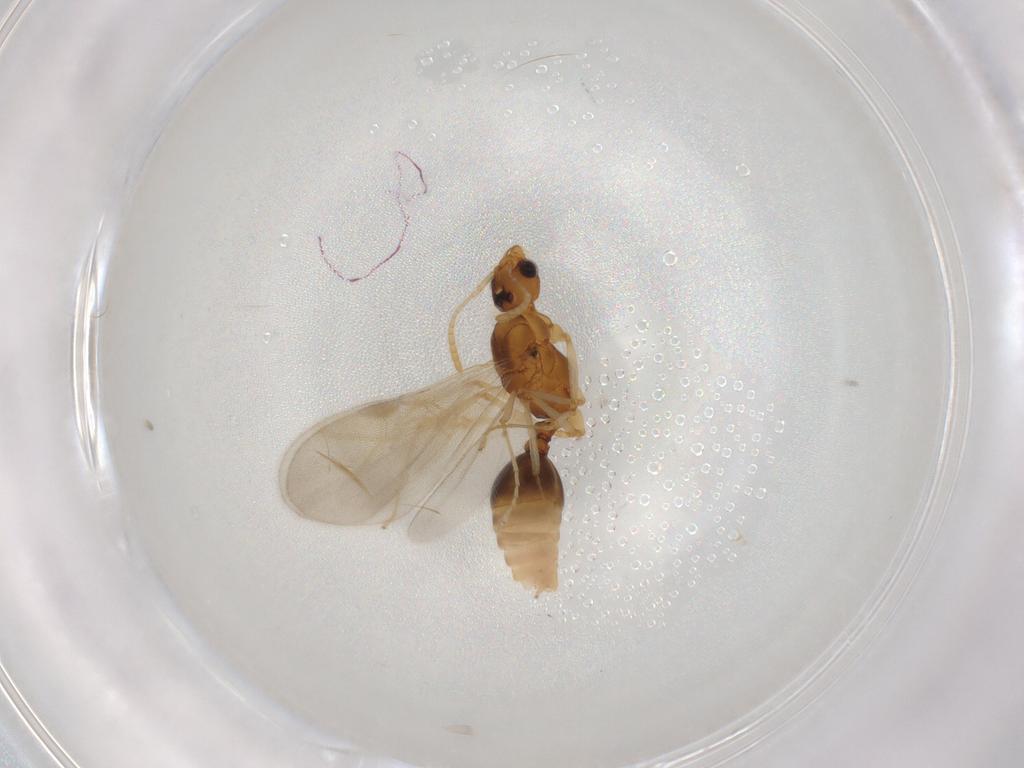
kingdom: Animalia
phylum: Arthropoda
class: Insecta
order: Hymenoptera
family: Formicidae
